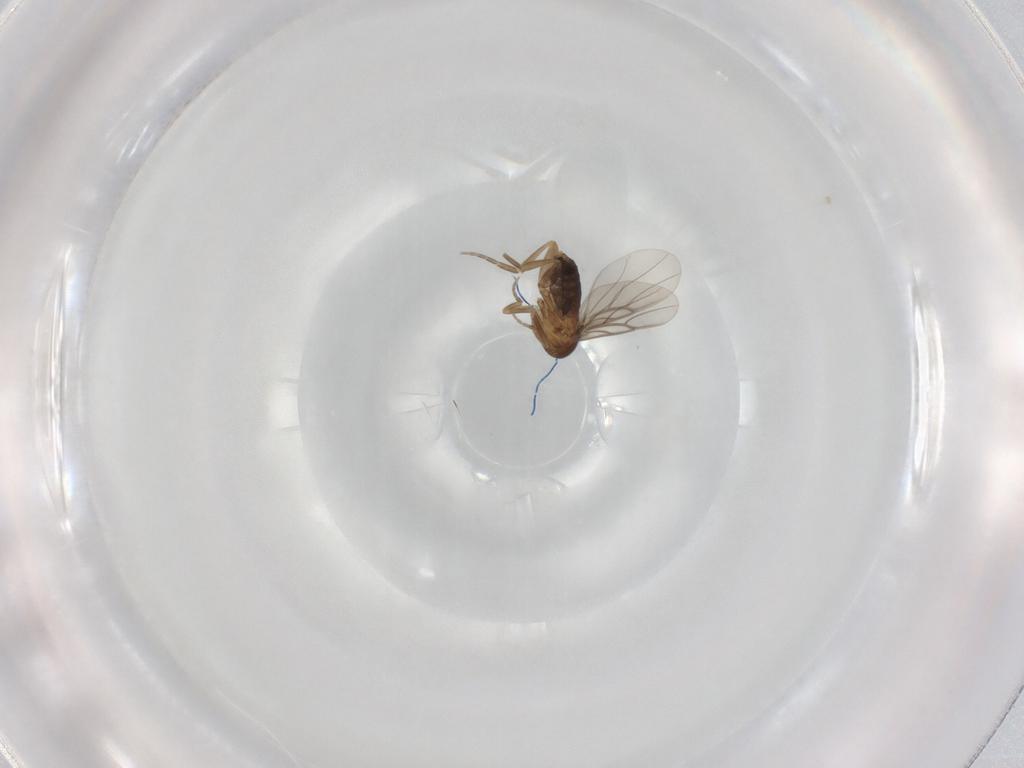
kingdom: Animalia
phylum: Arthropoda
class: Insecta
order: Diptera
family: Phoridae
